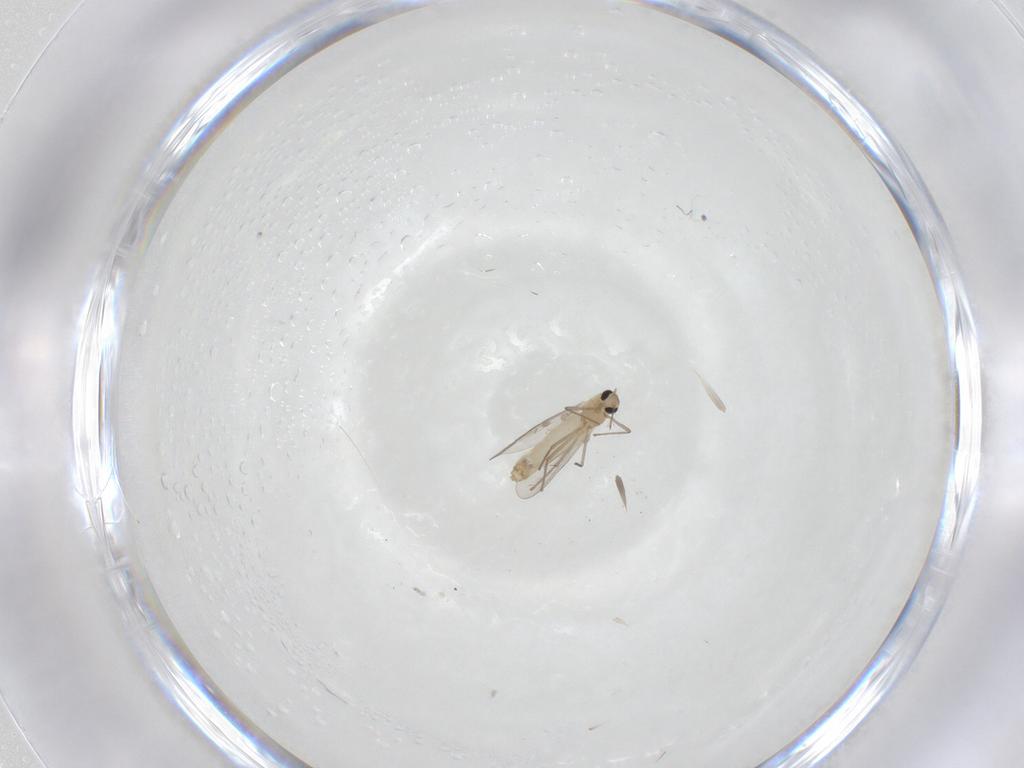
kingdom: Animalia
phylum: Arthropoda
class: Insecta
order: Diptera
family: Chironomidae
